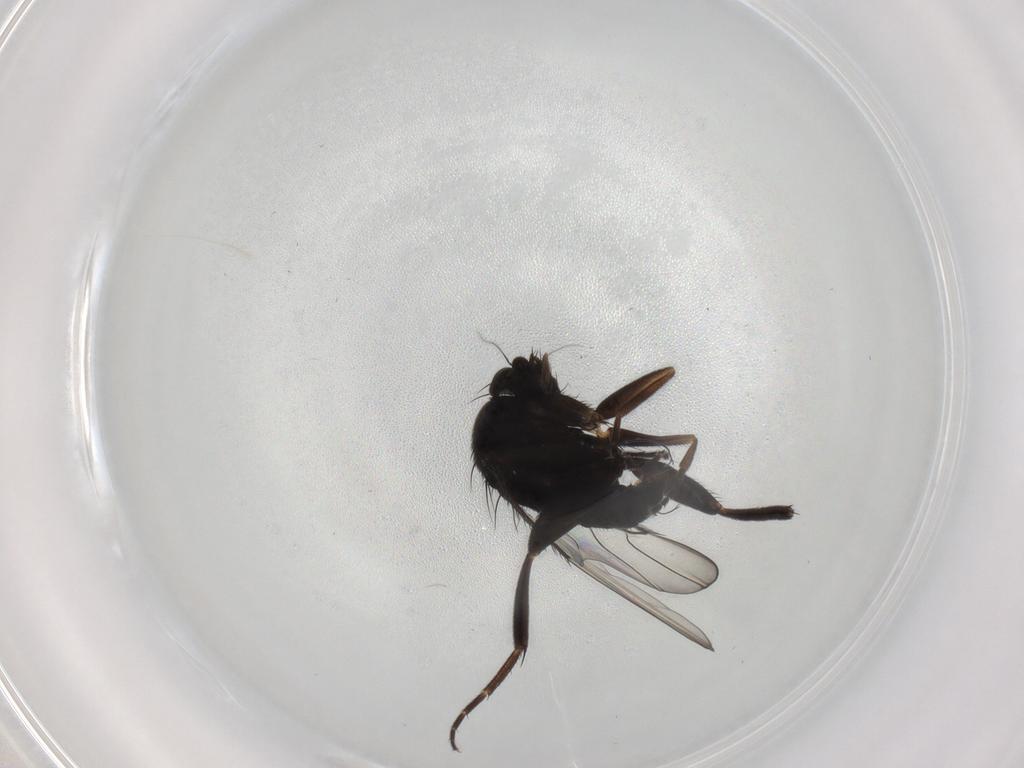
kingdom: Animalia
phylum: Arthropoda
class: Insecta
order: Diptera
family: Phoridae
